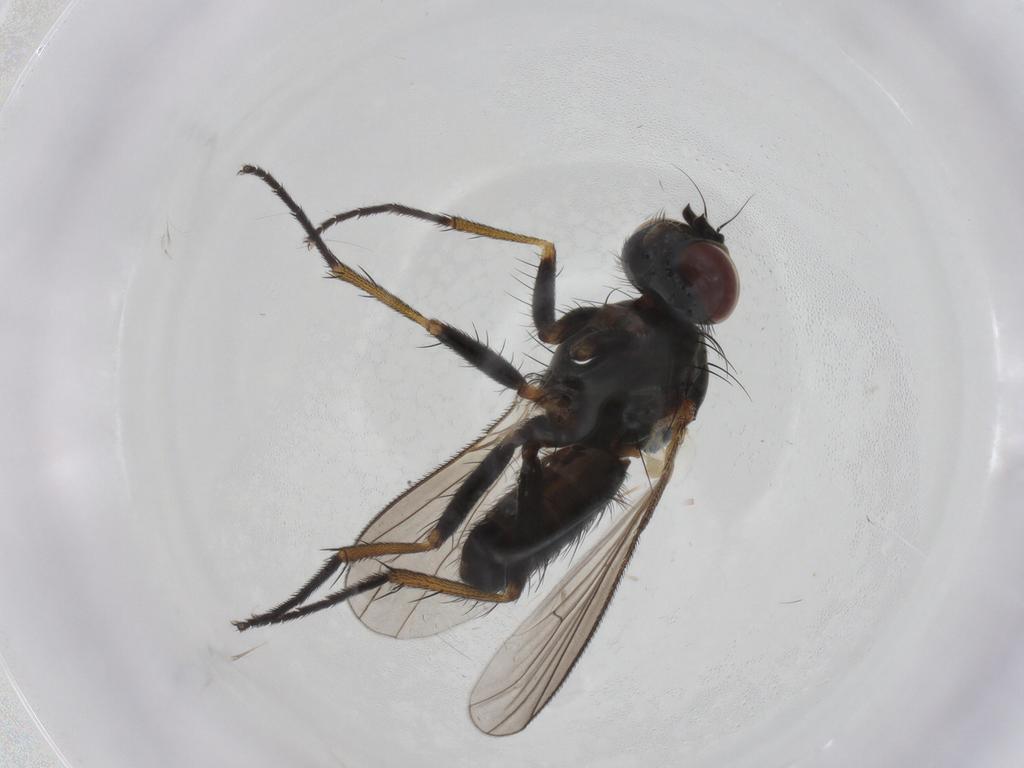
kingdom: Animalia
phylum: Arthropoda
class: Insecta
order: Diptera
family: Muscidae
